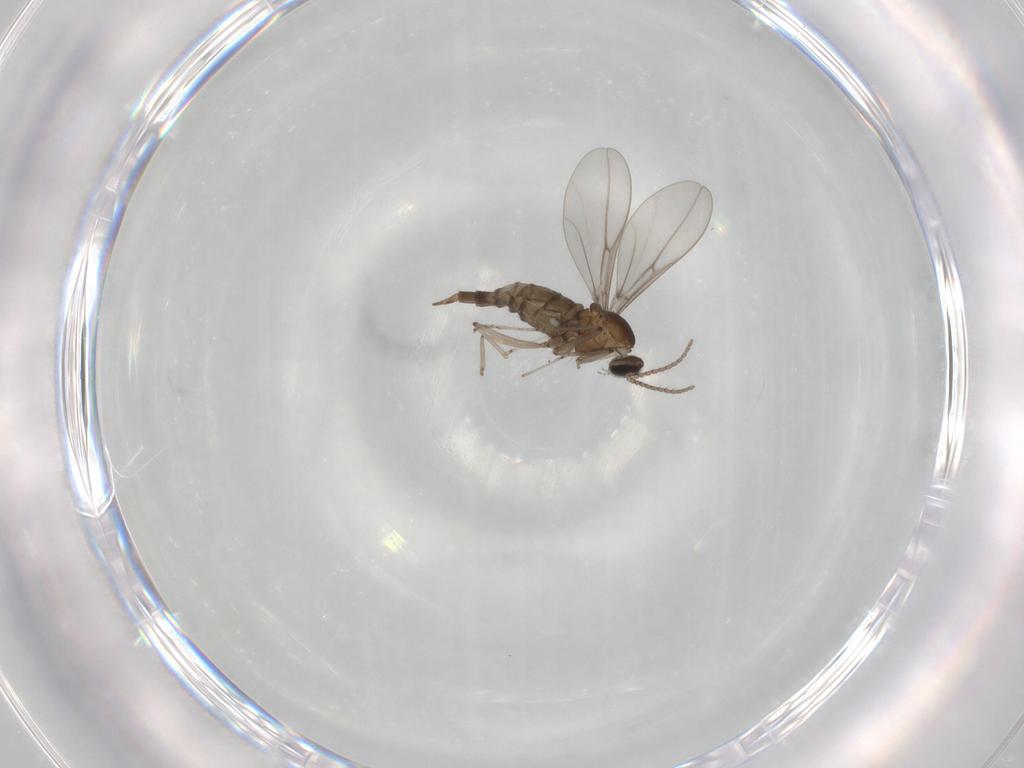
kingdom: Animalia
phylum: Arthropoda
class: Insecta
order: Diptera
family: Cecidomyiidae
